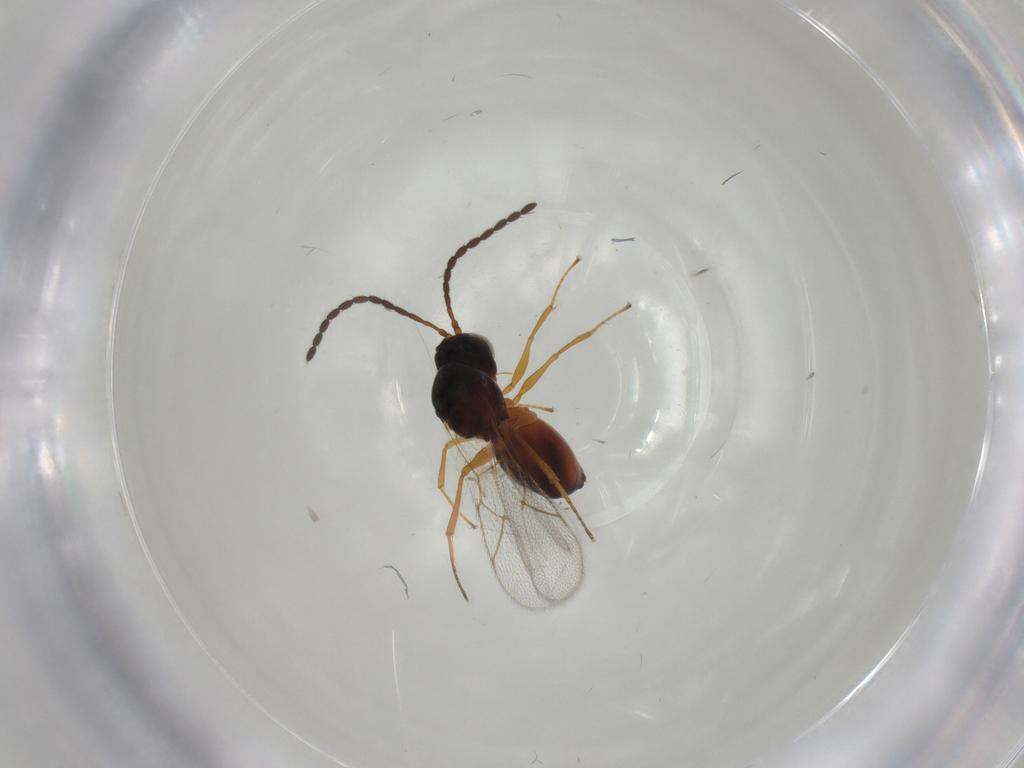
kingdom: Animalia
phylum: Arthropoda
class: Insecta
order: Hymenoptera
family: Figitidae
